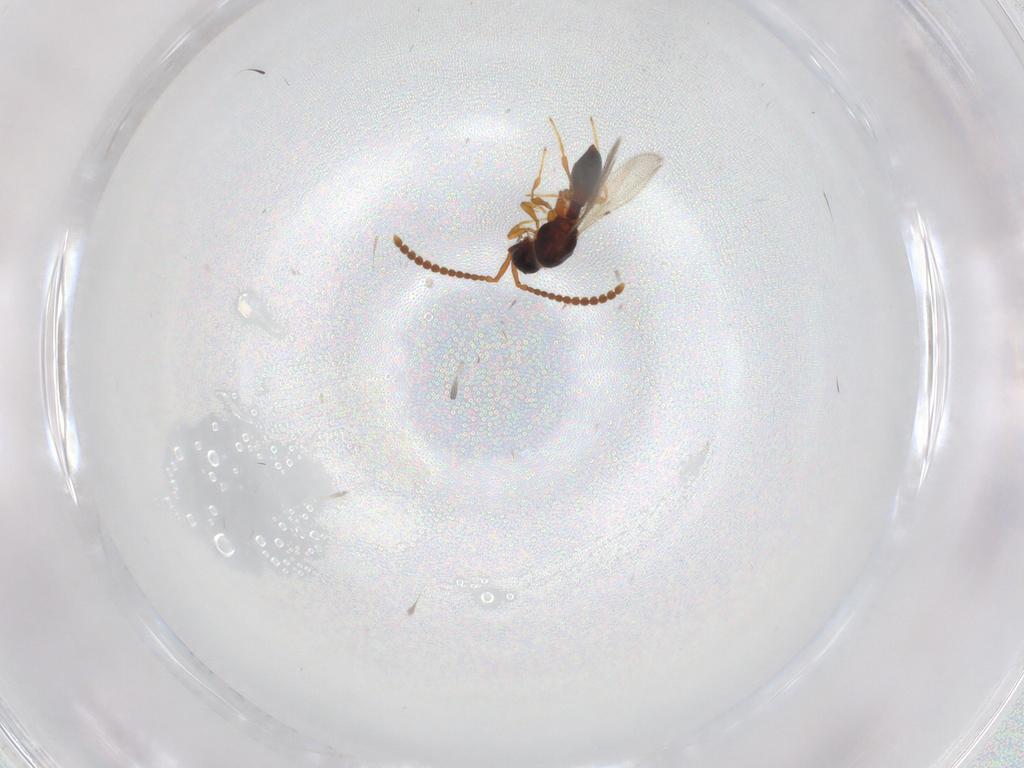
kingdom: Animalia
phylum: Arthropoda
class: Insecta
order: Hymenoptera
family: Diapriidae
